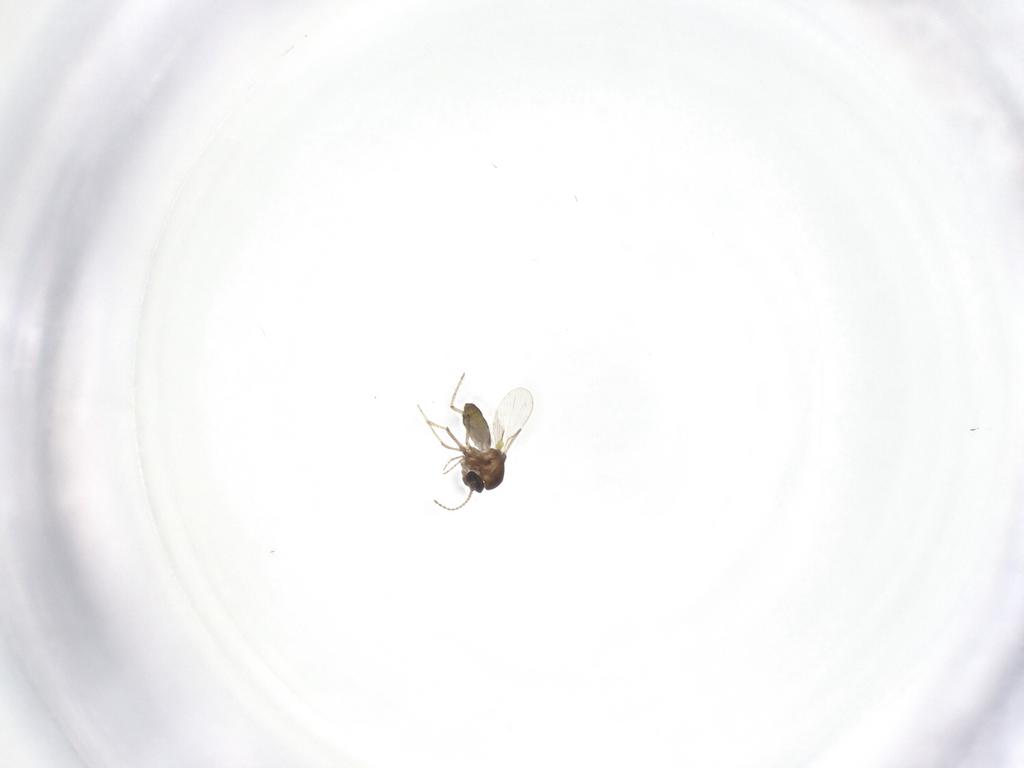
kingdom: Animalia
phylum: Arthropoda
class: Insecta
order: Diptera
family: Ceratopogonidae
